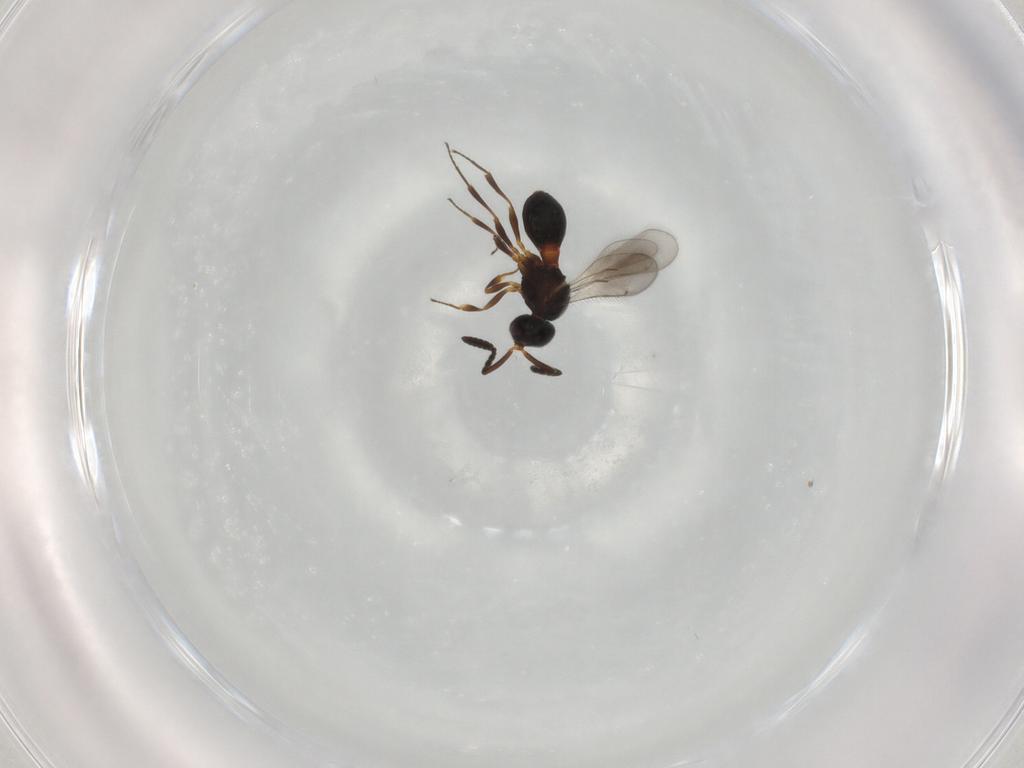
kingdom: Animalia
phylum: Arthropoda
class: Insecta
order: Hymenoptera
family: Scelionidae
